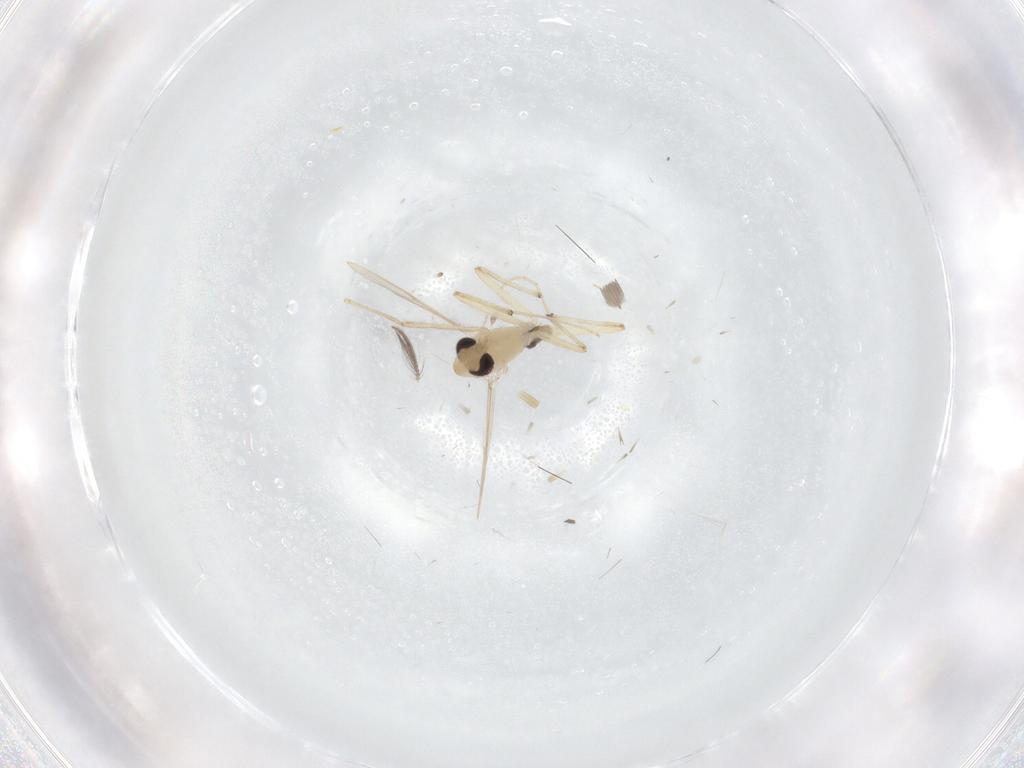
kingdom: Animalia
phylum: Arthropoda
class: Insecta
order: Diptera
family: Chironomidae
